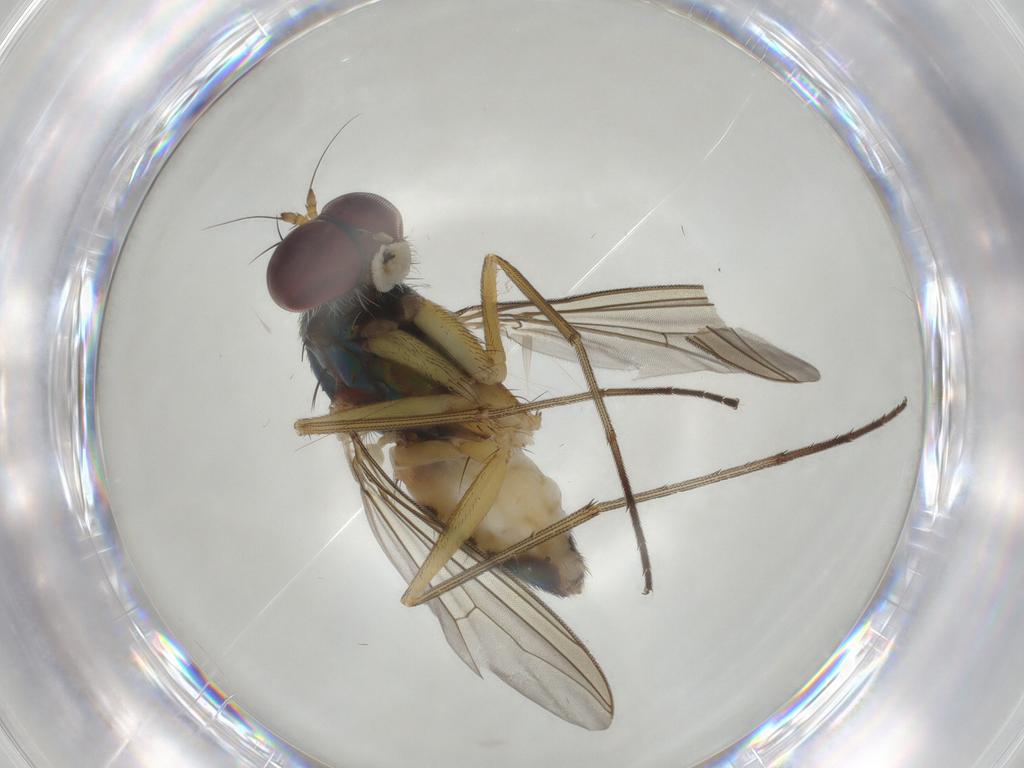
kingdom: Animalia
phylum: Arthropoda
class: Insecta
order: Diptera
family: Dolichopodidae
